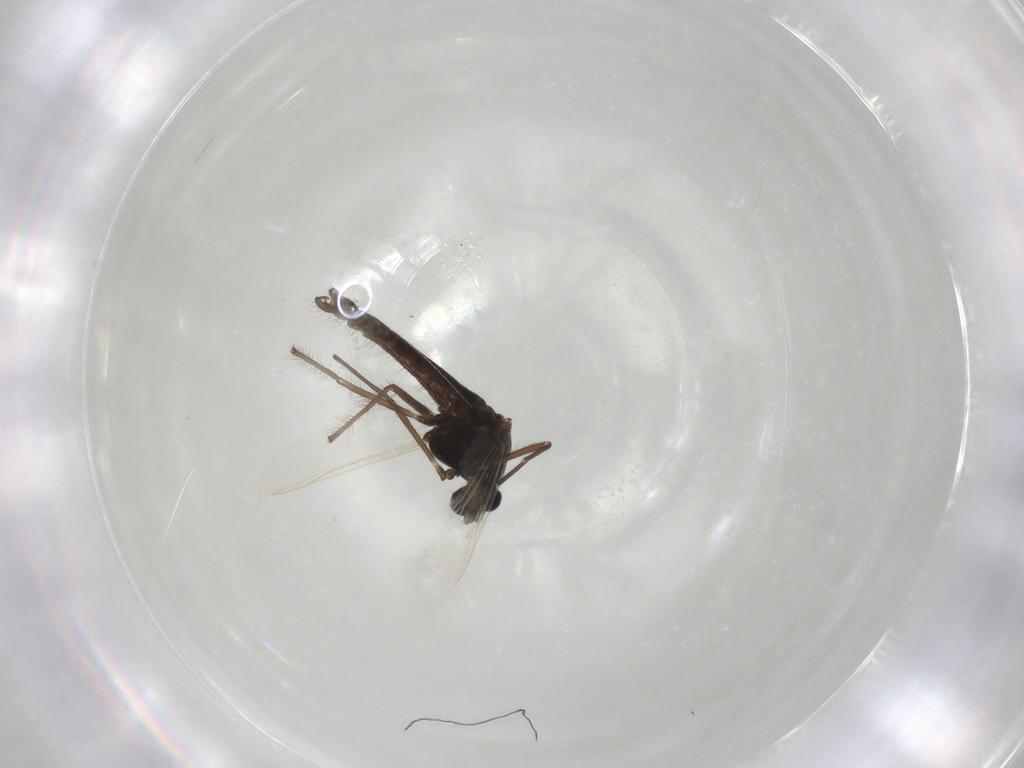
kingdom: Animalia
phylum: Arthropoda
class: Insecta
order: Diptera
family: Chironomidae
